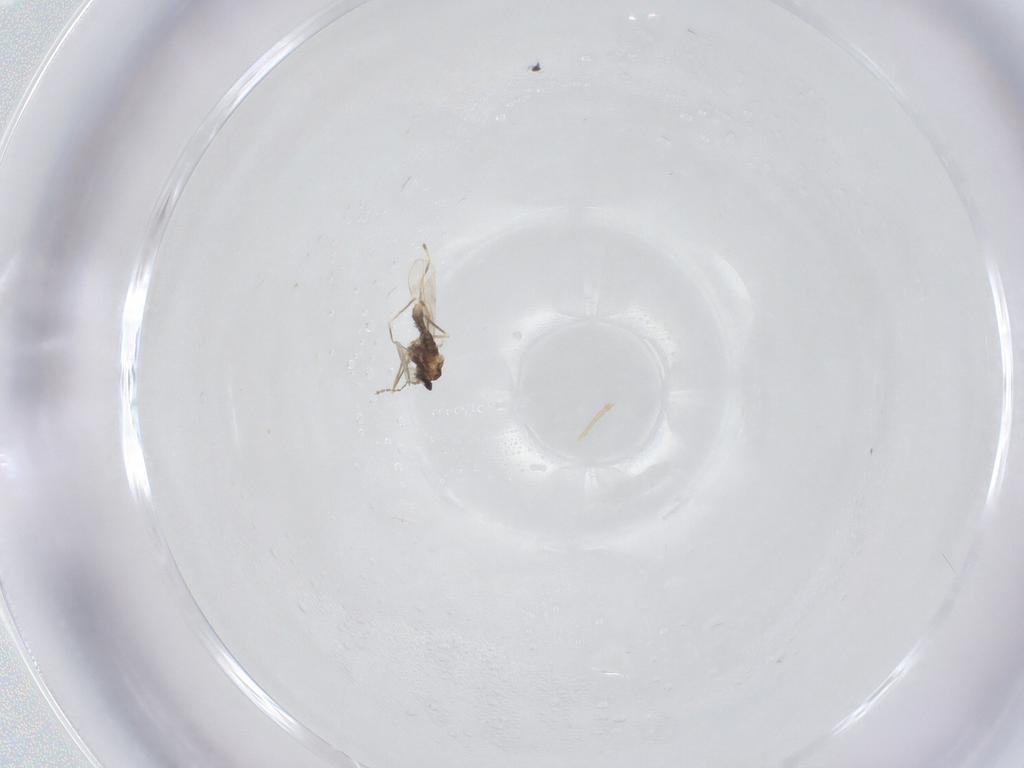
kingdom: Animalia
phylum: Arthropoda
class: Insecta
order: Diptera
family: Cecidomyiidae
